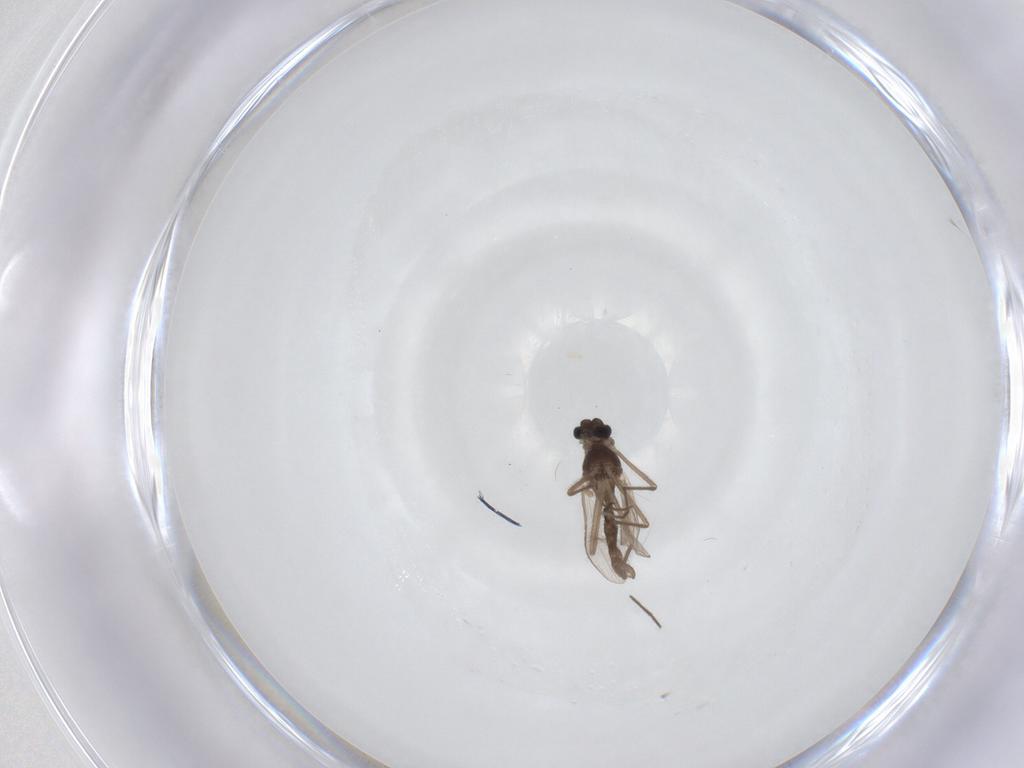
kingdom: Animalia
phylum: Arthropoda
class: Insecta
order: Diptera
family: Chironomidae
